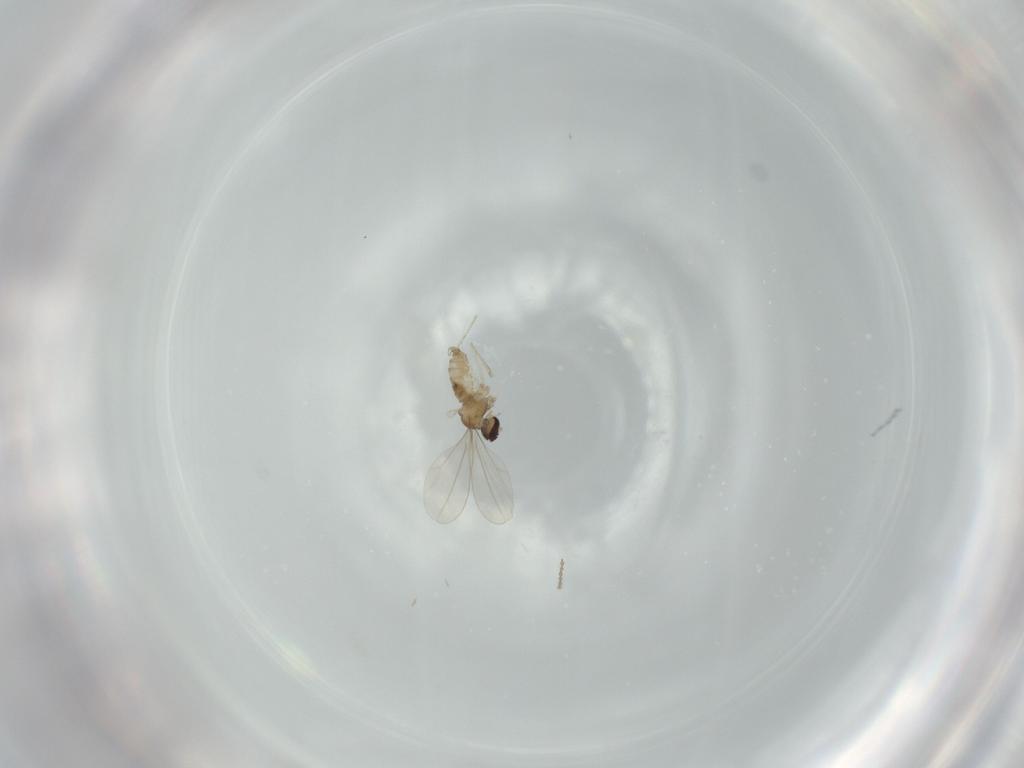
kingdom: Animalia
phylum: Arthropoda
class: Insecta
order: Diptera
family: Cecidomyiidae
